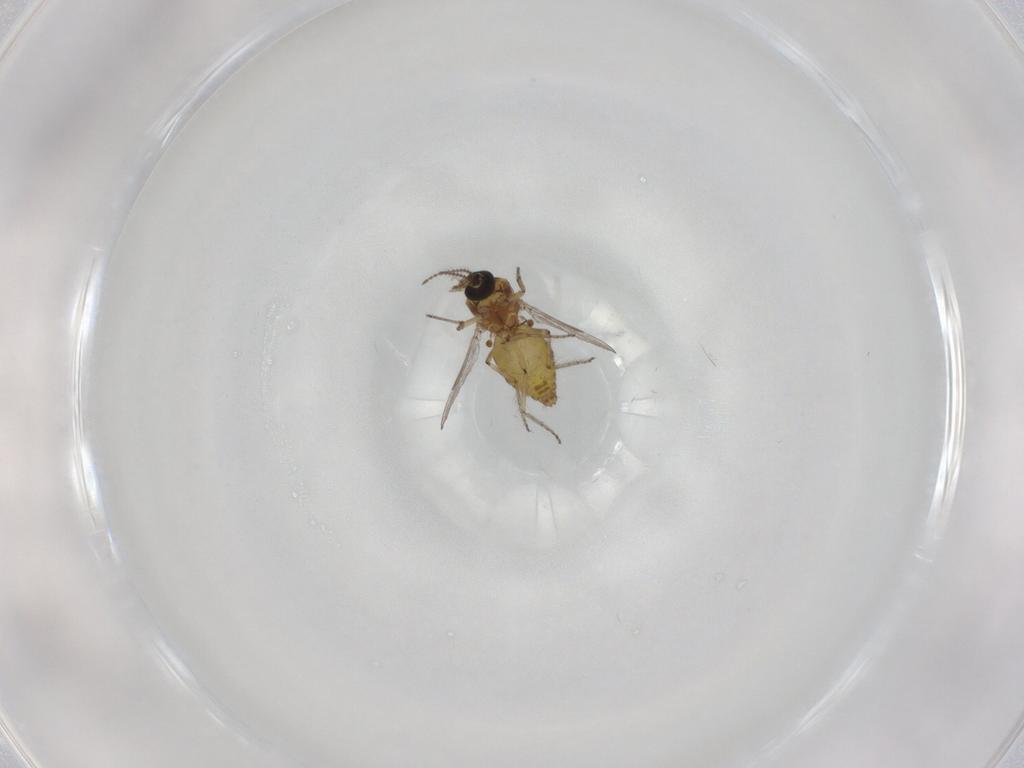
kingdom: Animalia
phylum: Arthropoda
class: Insecta
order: Diptera
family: Ceratopogonidae
